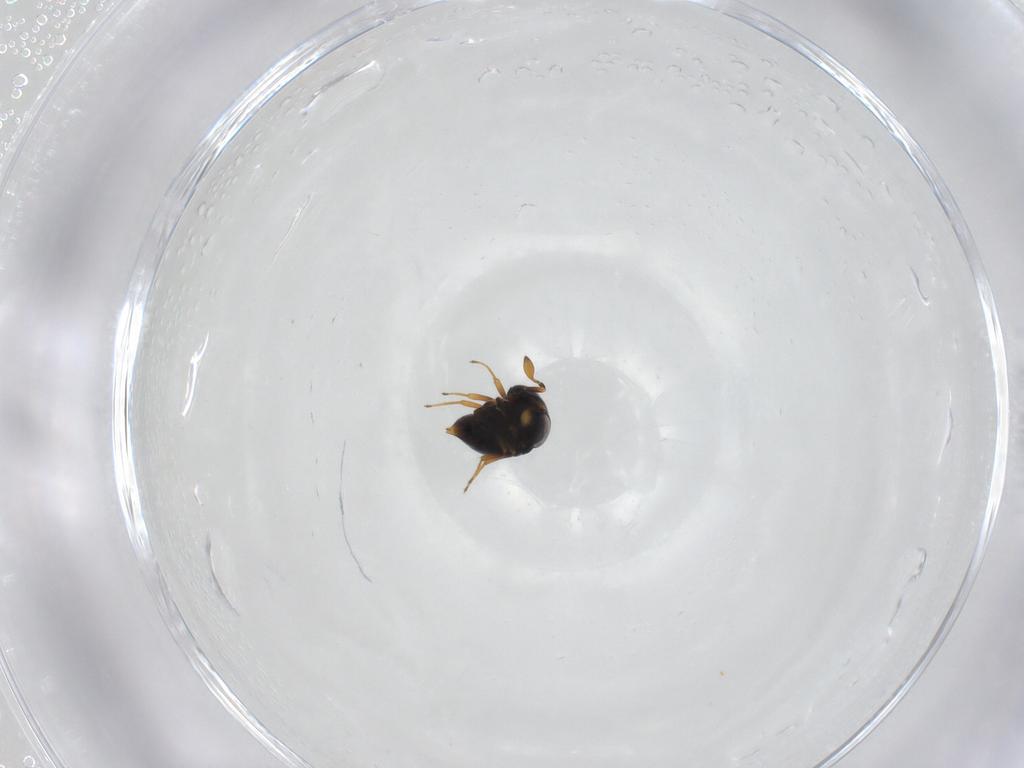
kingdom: Animalia
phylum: Arthropoda
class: Insecta
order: Hymenoptera
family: Scelionidae
